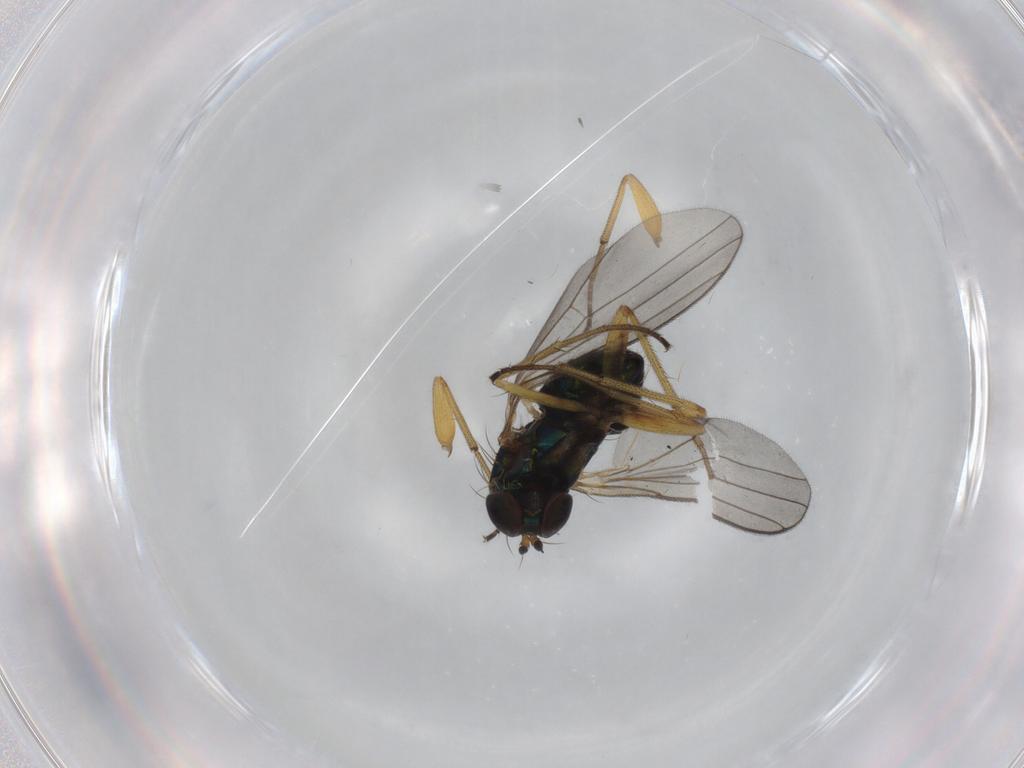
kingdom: Animalia
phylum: Arthropoda
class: Insecta
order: Diptera
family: Dolichopodidae
